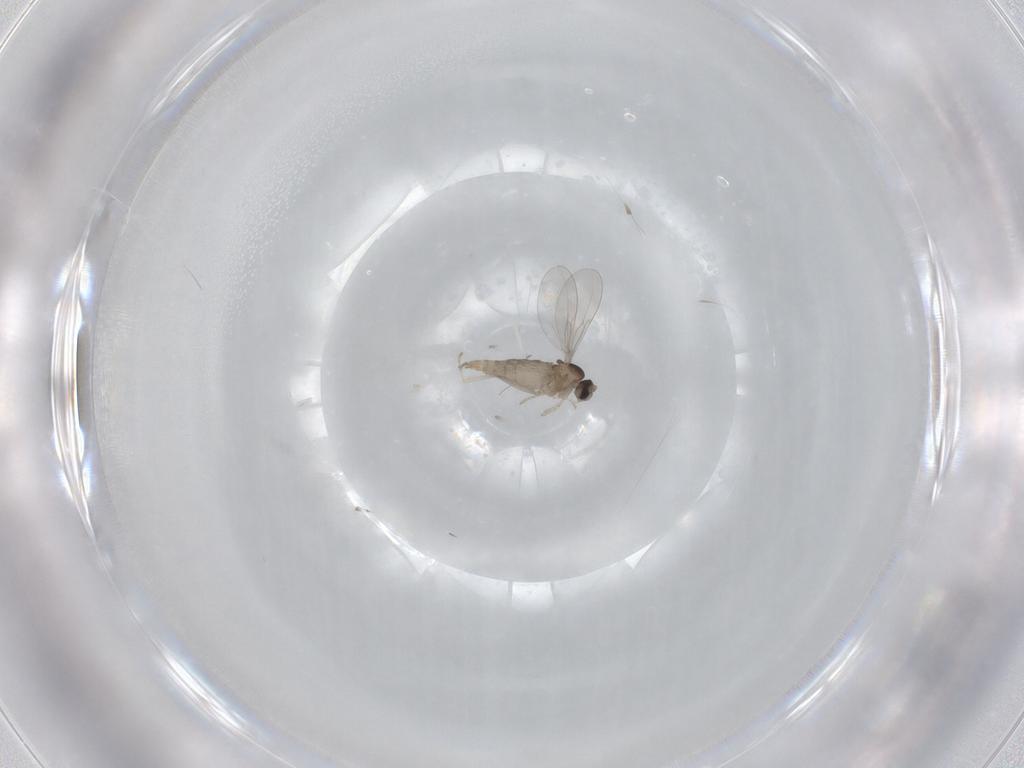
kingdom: Animalia
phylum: Arthropoda
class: Insecta
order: Diptera
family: Cecidomyiidae
